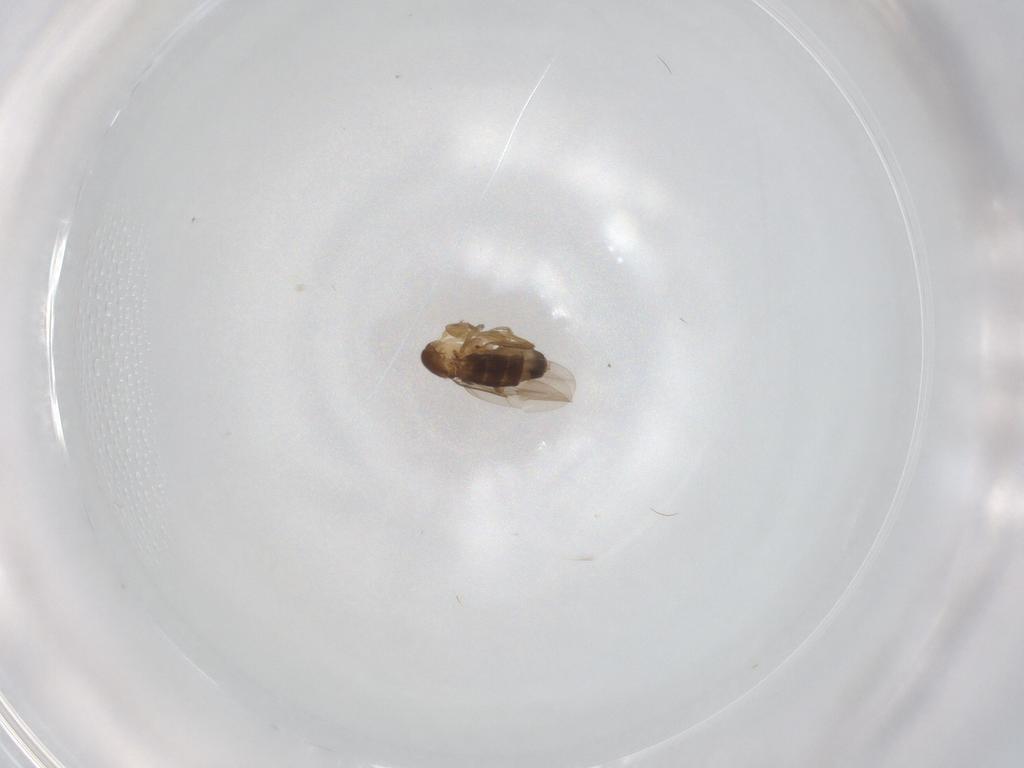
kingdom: Animalia
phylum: Arthropoda
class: Insecta
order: Diptera
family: Phoridae
